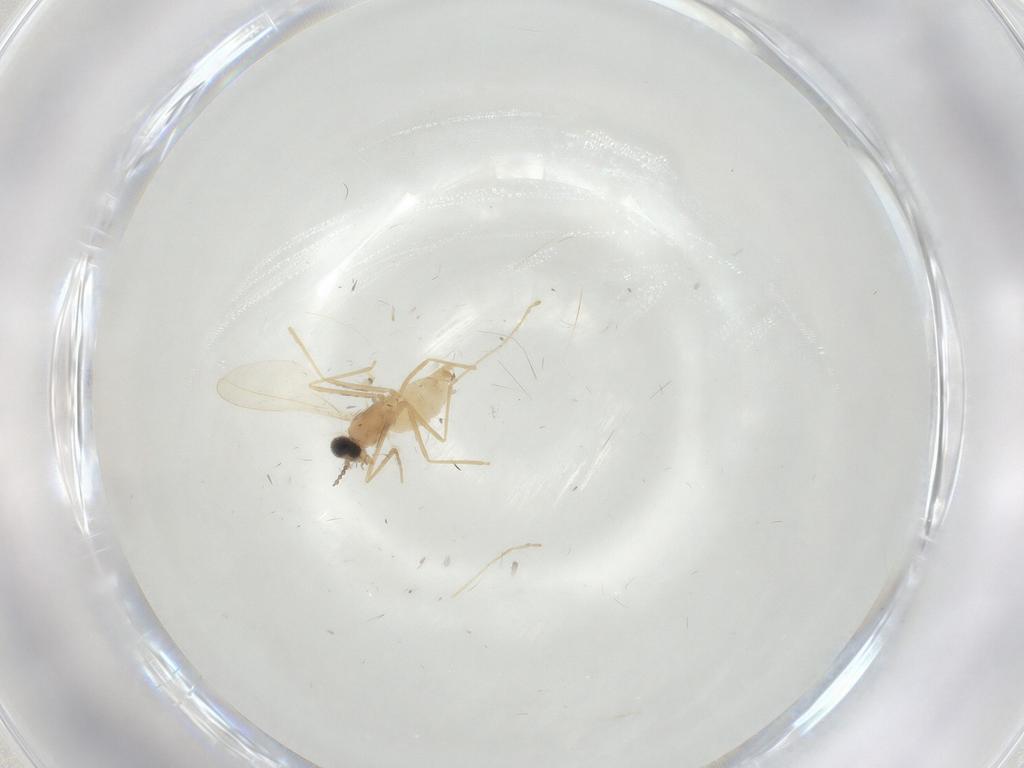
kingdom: Animalia
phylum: Arthropoda
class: Insecta
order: Diptera
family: Cecidomyiidae
